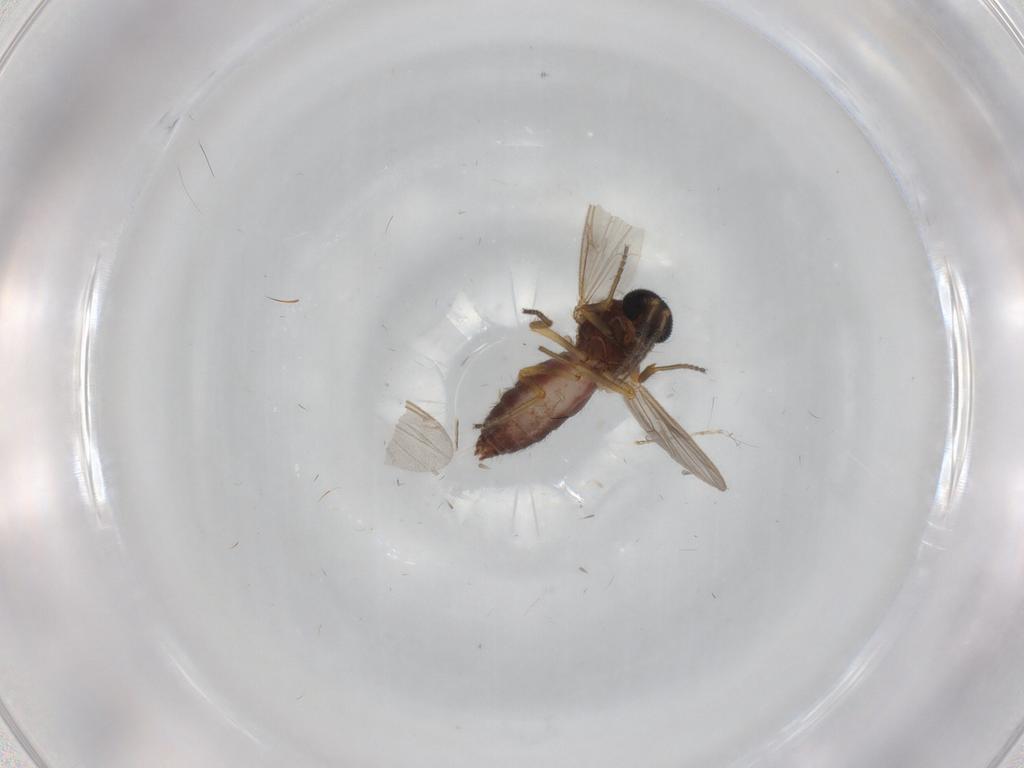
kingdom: Animalia
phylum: Arthropoda
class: Insecta
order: Diptera
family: Ceratopogonidae
